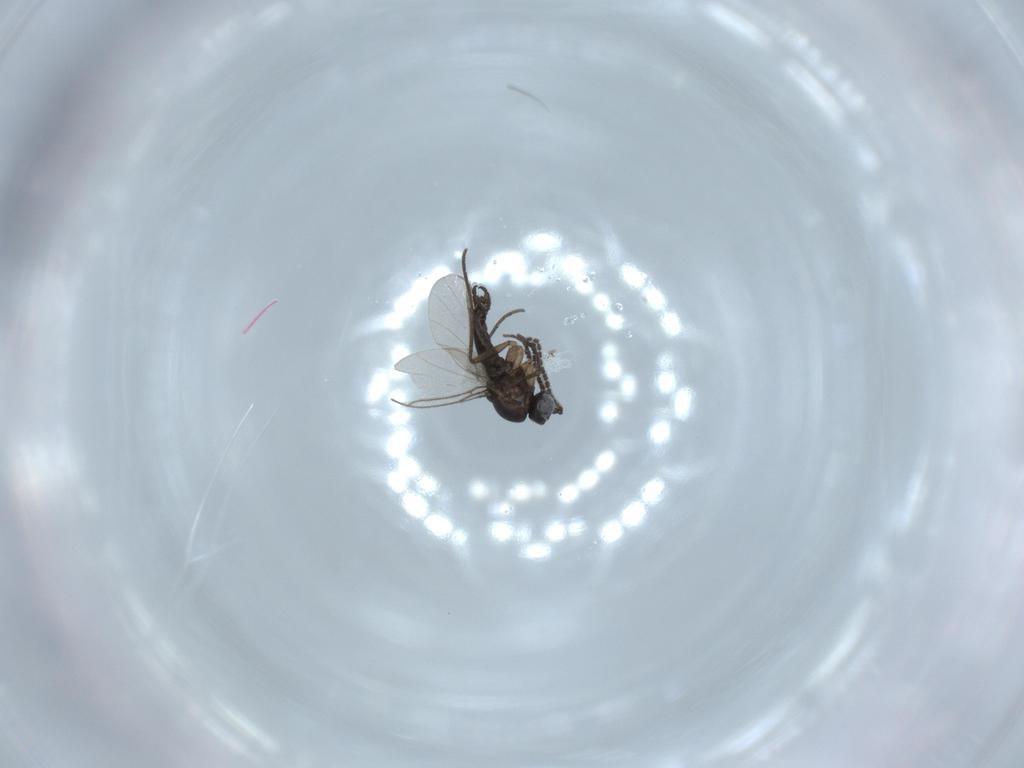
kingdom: Animalia
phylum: Arthropoda
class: Insecta
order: Diptera
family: Sciaridae
